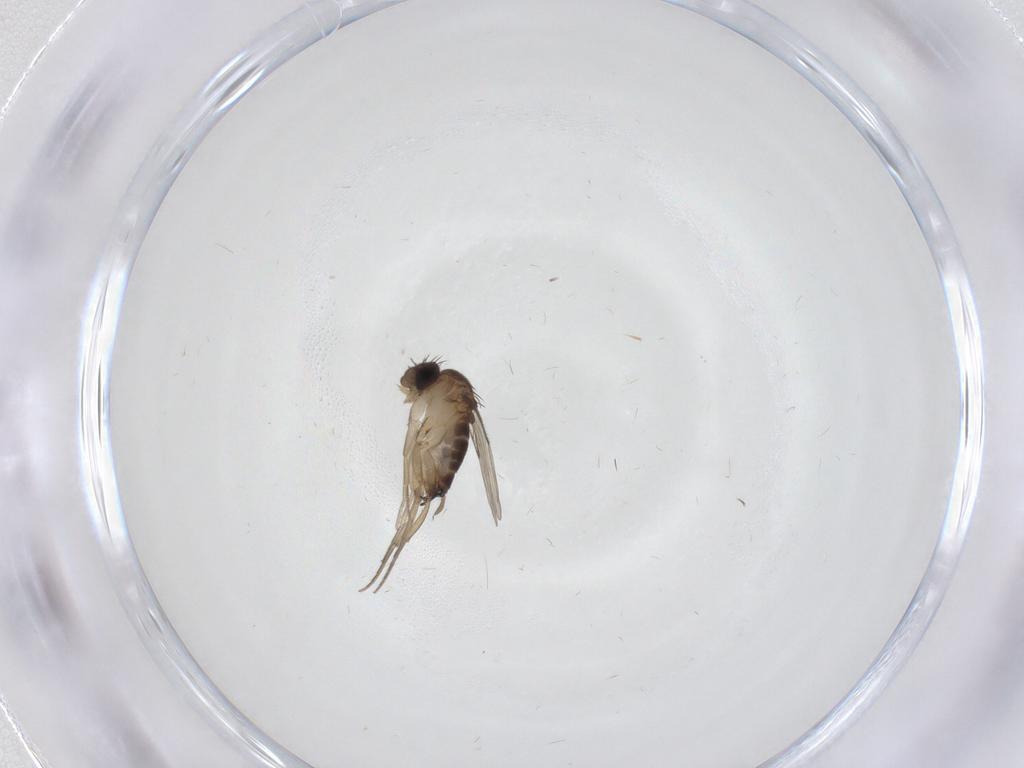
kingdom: Animalia
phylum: Arthropoda
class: Insecta
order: Diptera
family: Phoridae
